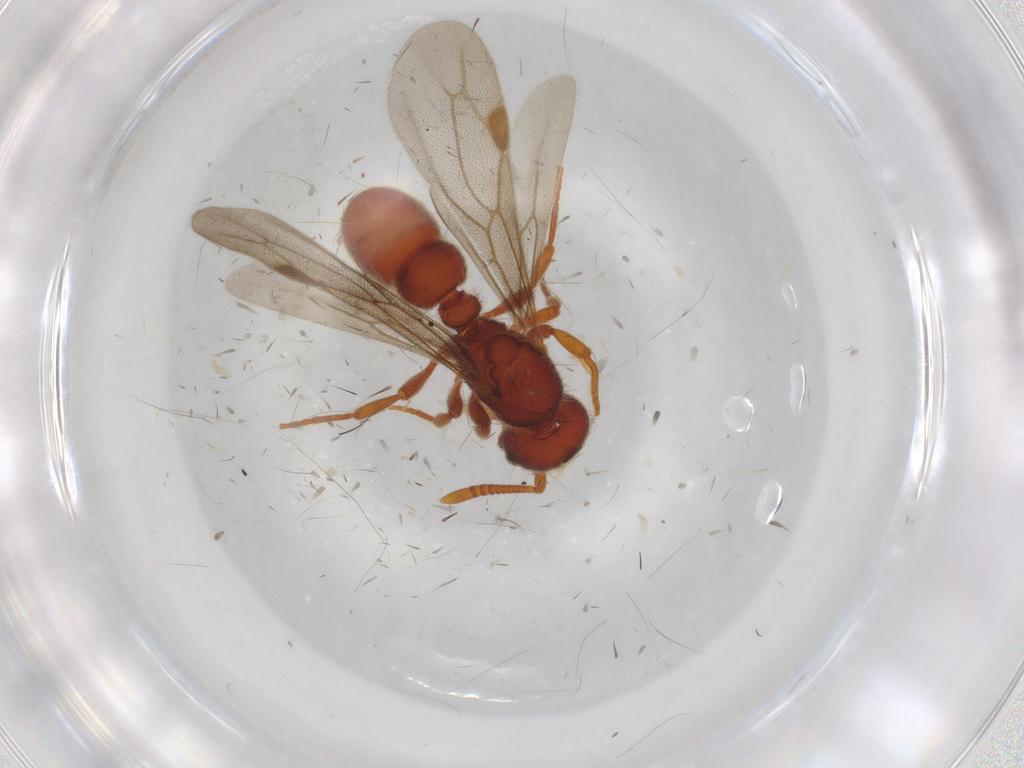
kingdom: Animalia
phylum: Arthropoda
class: Insecta
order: Hymenoptera
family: Formicidae
